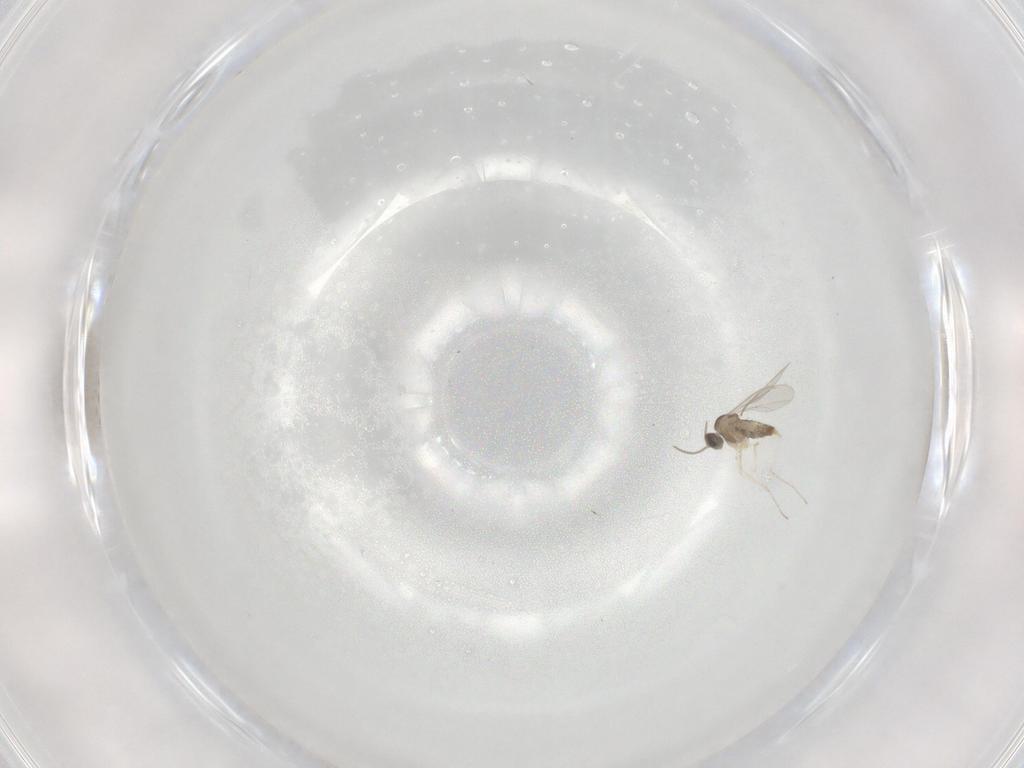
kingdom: Animalia
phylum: Arthropoda
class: Insecta
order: Diptera
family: Cecidomyiidae
